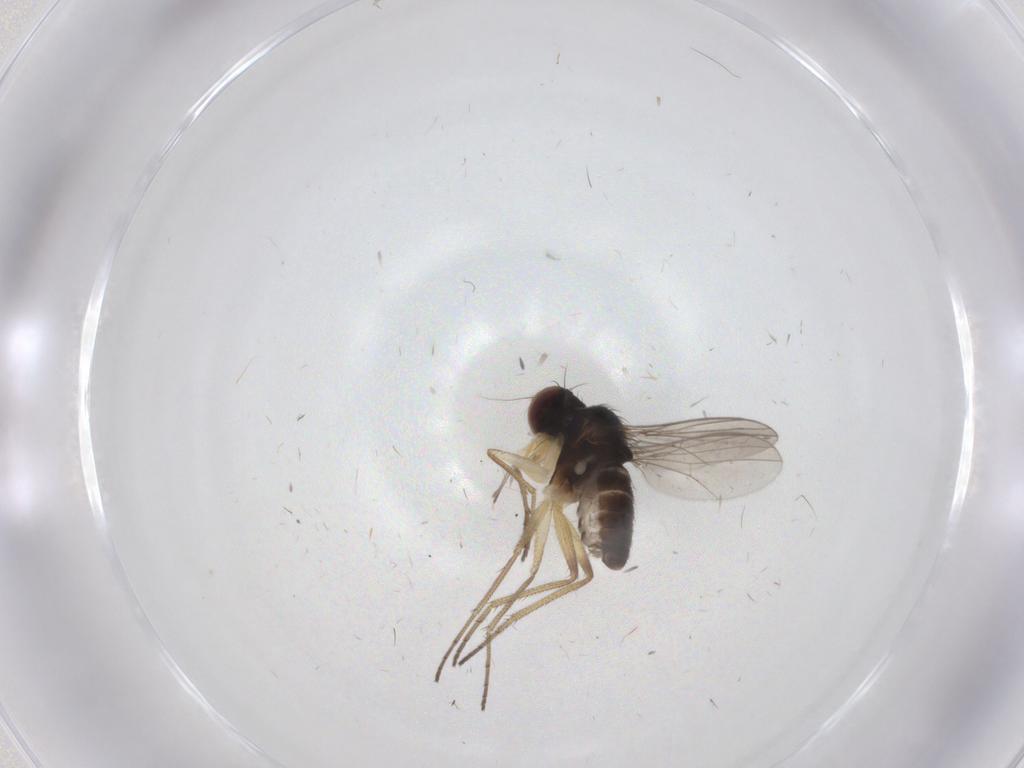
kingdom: Animalia
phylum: Arthropoda
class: Insecta
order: Diptera
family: Dolichopodidae
